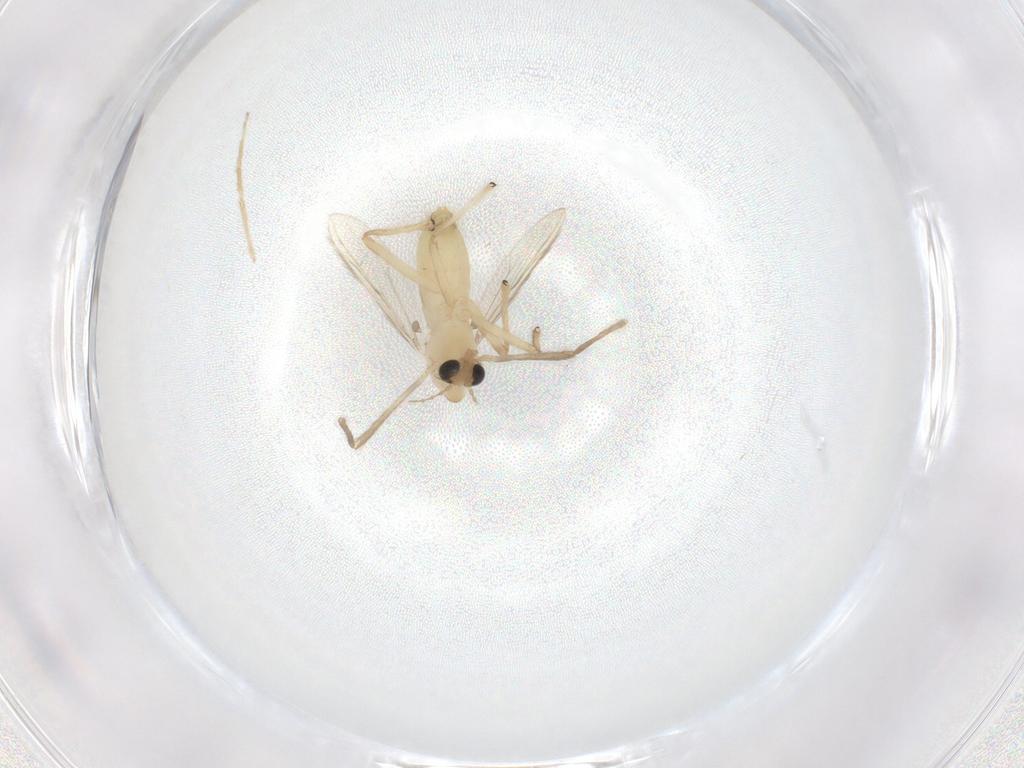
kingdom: Animalia
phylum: Arthropoda
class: Insecta
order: Diptera
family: Chironomidae
